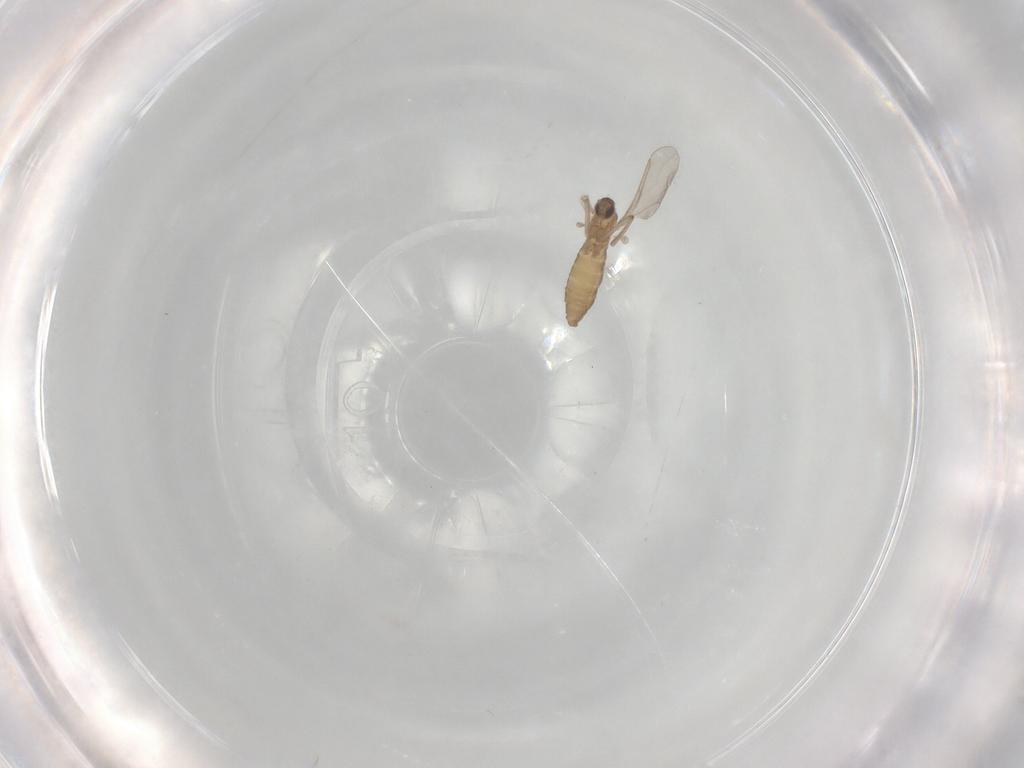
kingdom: Animalia
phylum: Arthropoda
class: Insecta
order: Diptera
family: Cecidomyiidae
